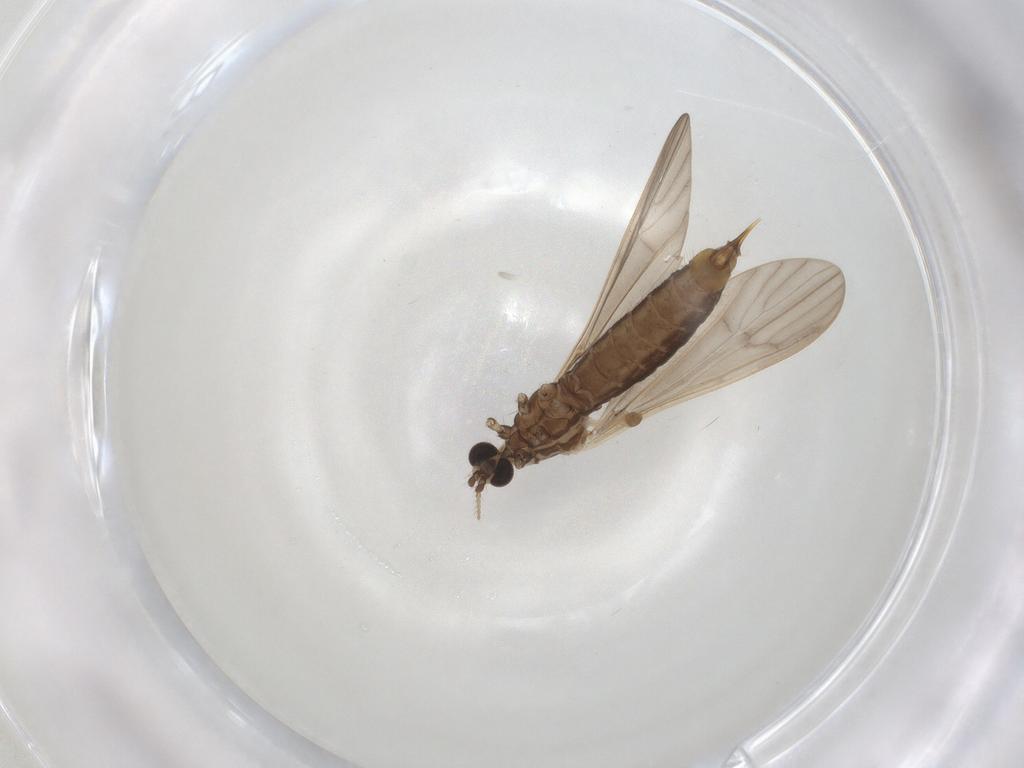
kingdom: Animalia
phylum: Arthropoda
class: Insecta
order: Diptera
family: Limoniidae
